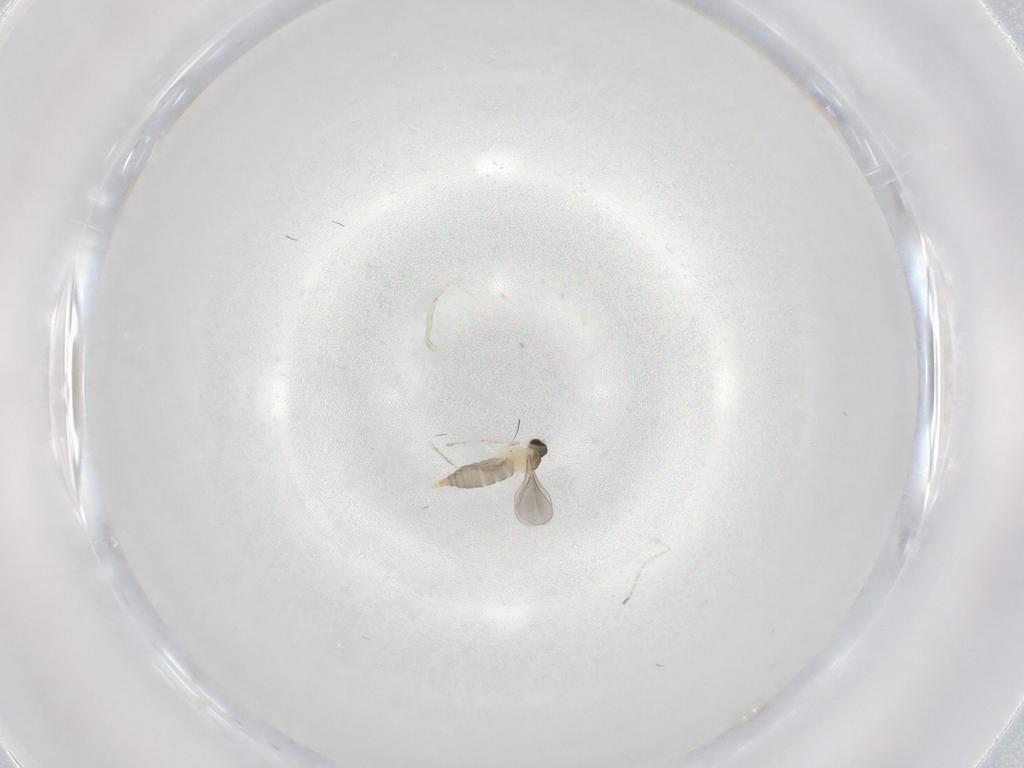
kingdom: Animalia
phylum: Arthropoda
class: Insecta
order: Diptera
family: Cecidomyiidae
